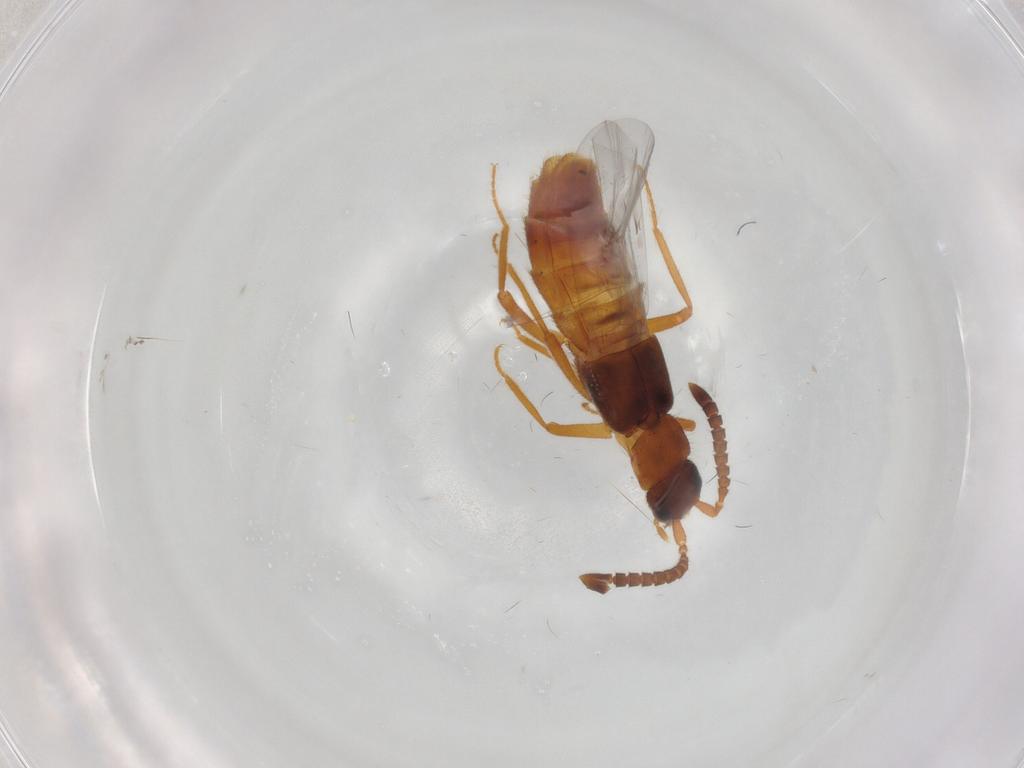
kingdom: Animalia
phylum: Arthropoda
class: Insecta
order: Coleoptera
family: Staphylinidae
